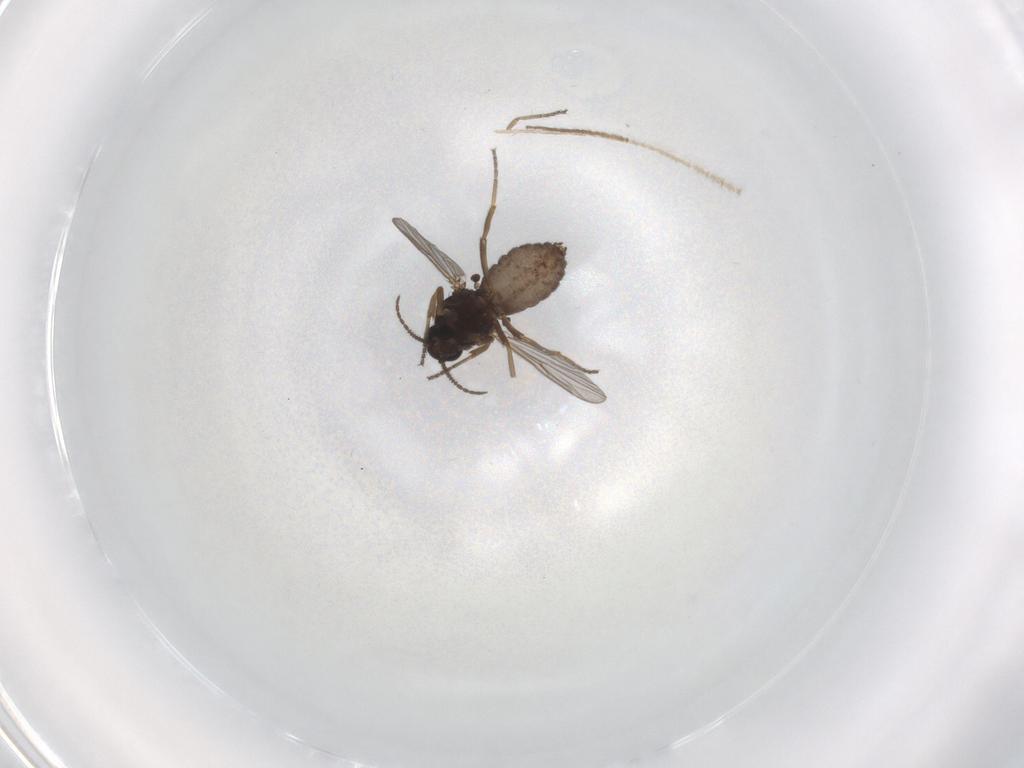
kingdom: Animalia
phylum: Arthropoda
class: Insecta
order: Diptera
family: Ceratopogonidae
